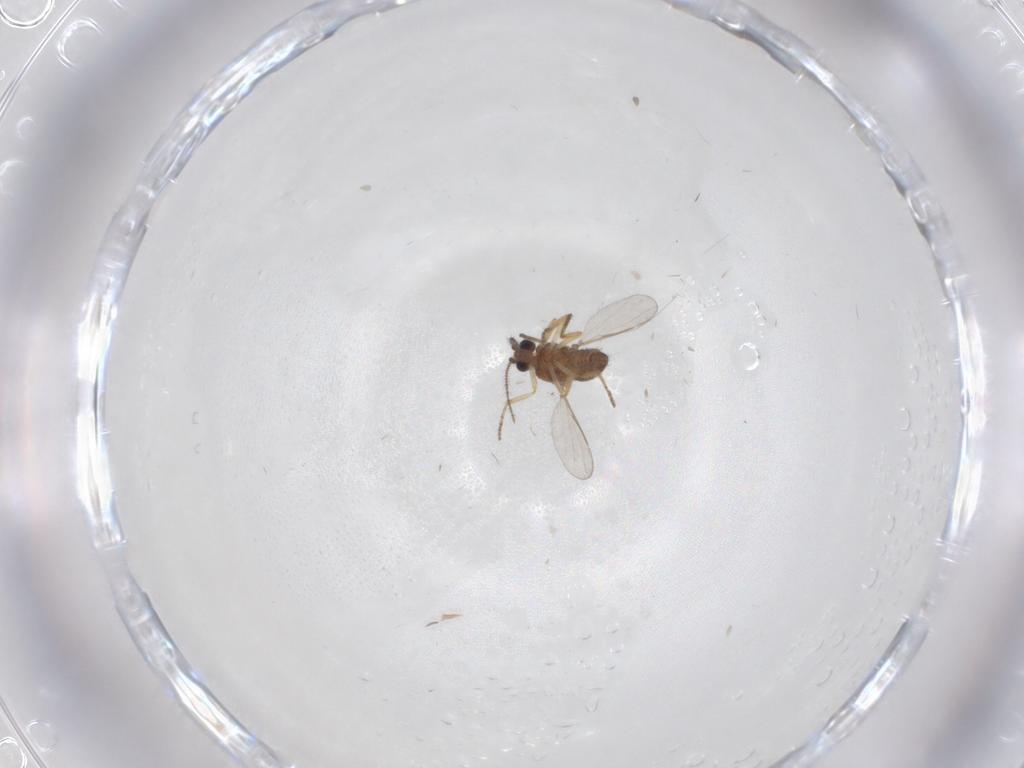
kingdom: Animalia
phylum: Arthropoda
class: Insecta
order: Diptera
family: Ceratopogonidae
